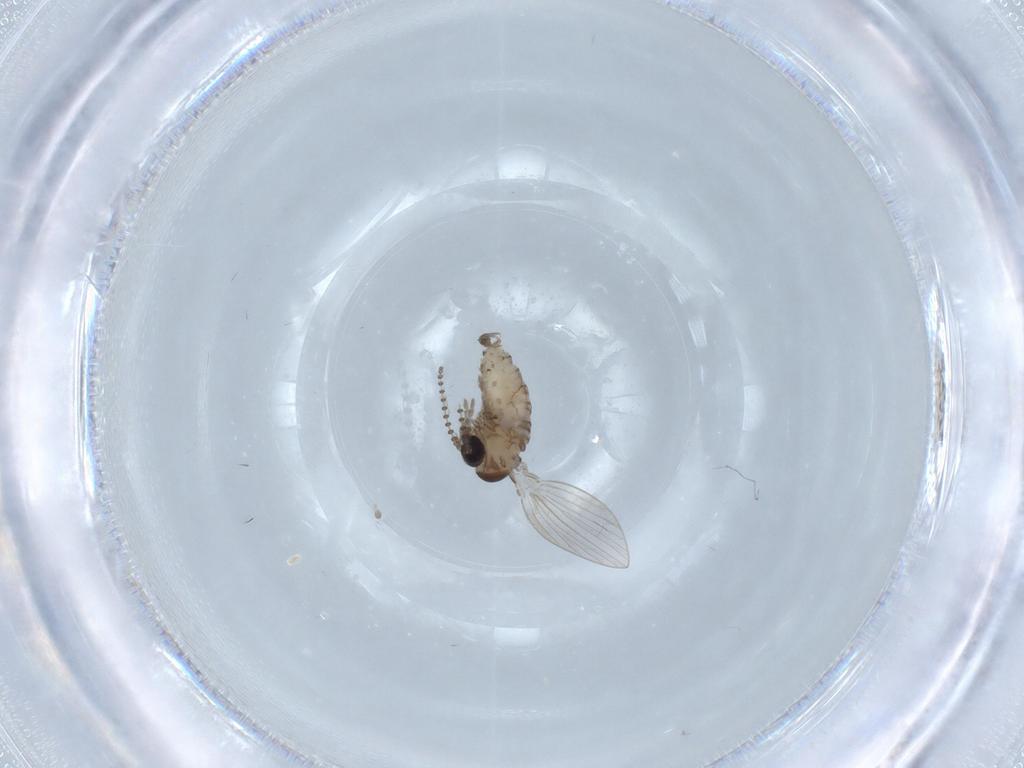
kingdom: Animalia
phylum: Arthropoda
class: Insecta
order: Diptera
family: Psychodidae
